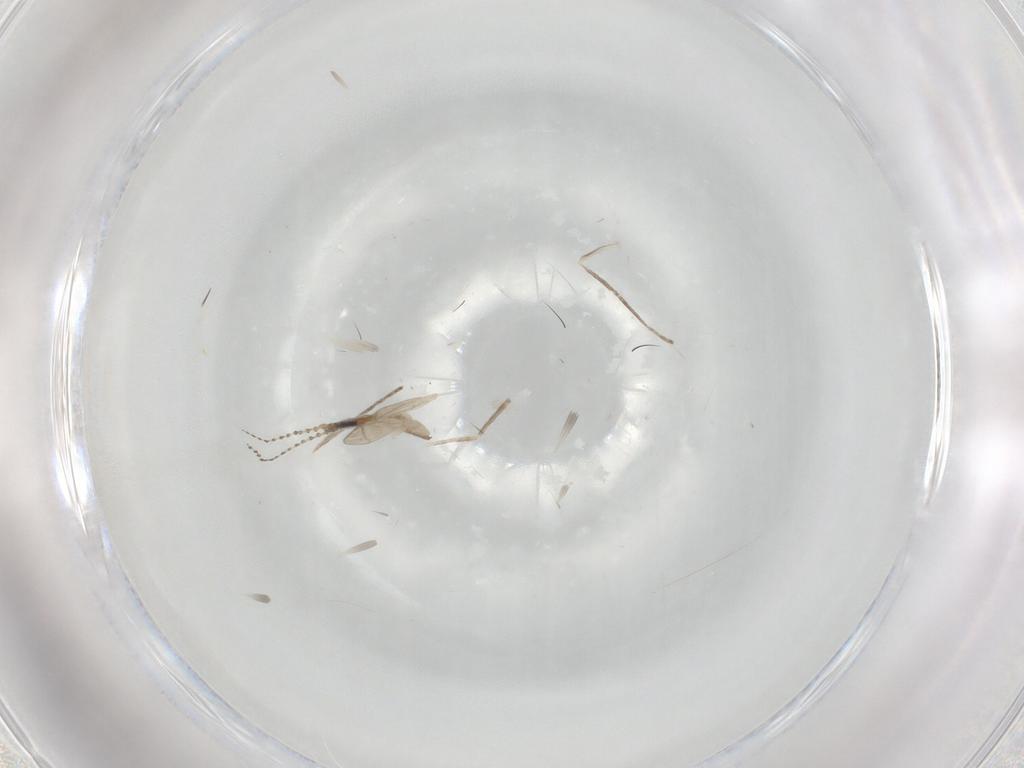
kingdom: Animalia
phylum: Arthropoda
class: Insecta
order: Diptera
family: Cecidomyiidae
